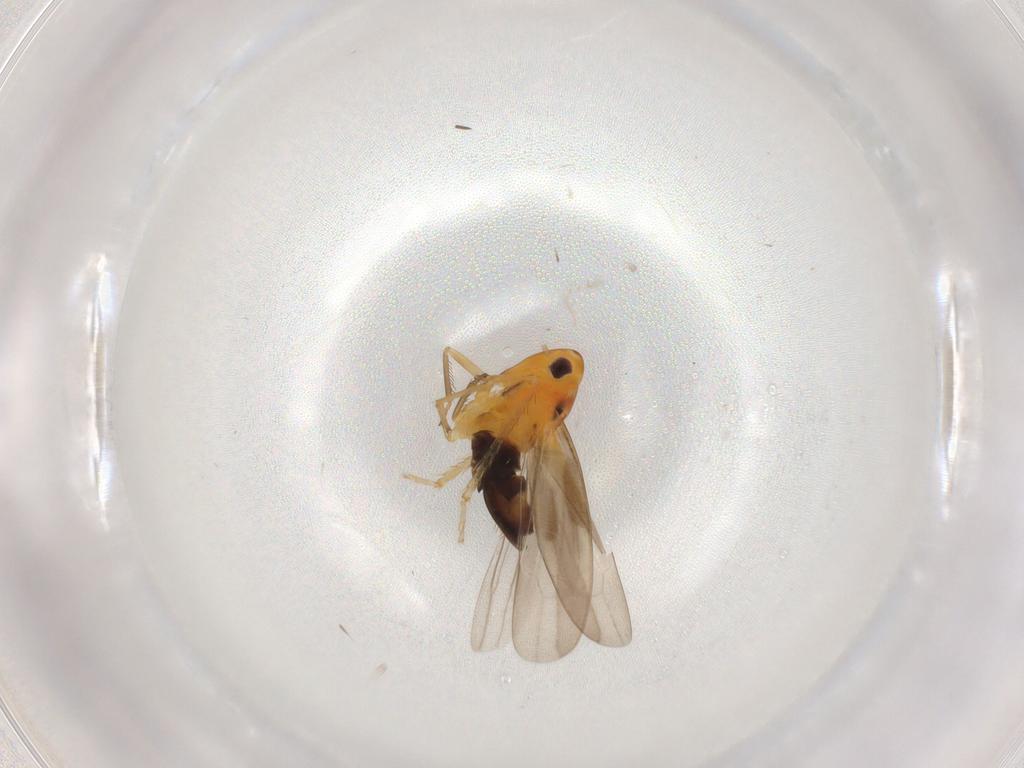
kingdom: Animalia
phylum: Arthropoda
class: Insecta
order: Hemiptera
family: Cicadellidae
